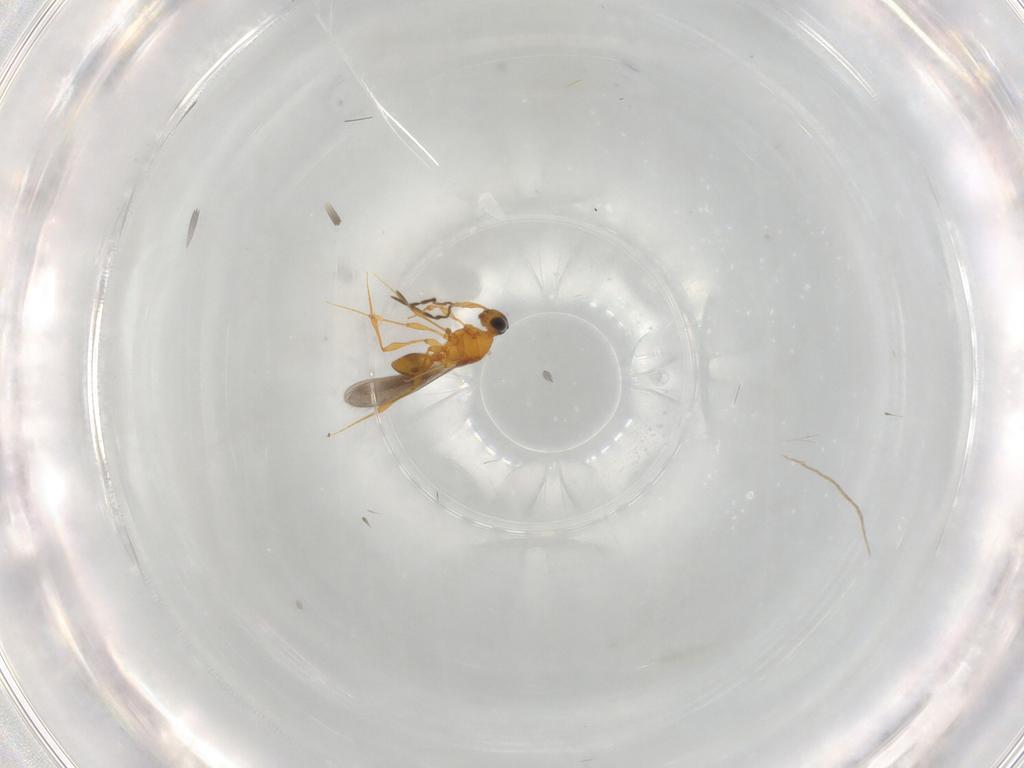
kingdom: Animalia
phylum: Arthropoda
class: Insecta
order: Hymenoptera
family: Platygastridae
